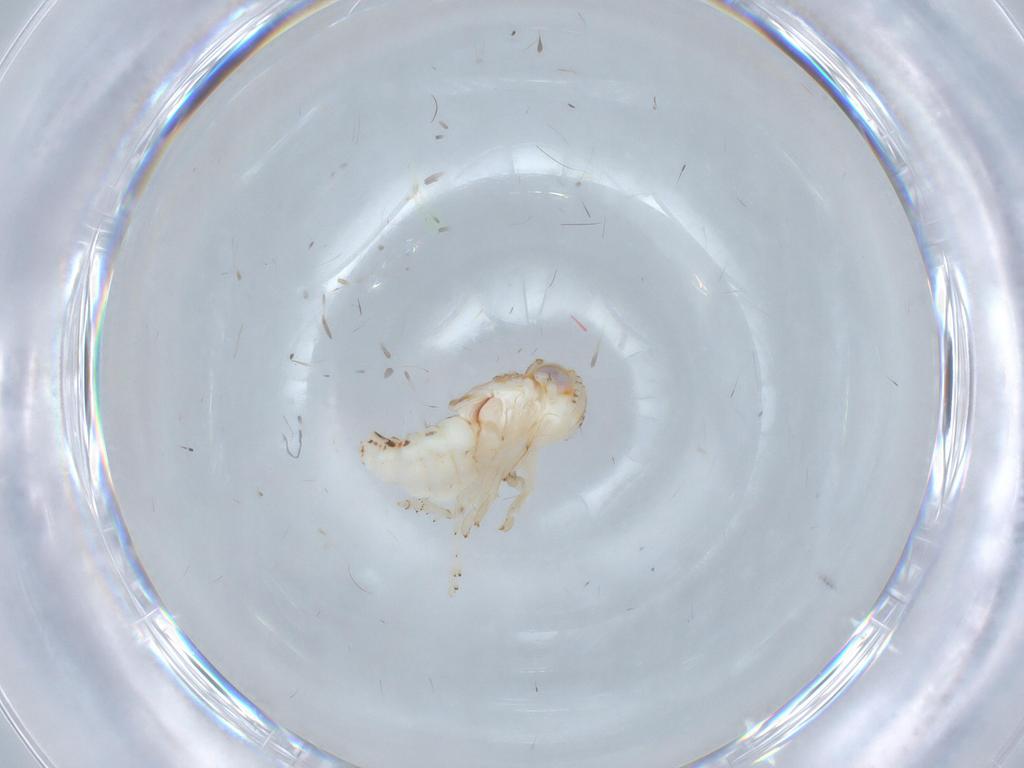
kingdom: Animalia
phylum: Arthropoda
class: Insecta
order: Hemiptera
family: Nogodinidae
